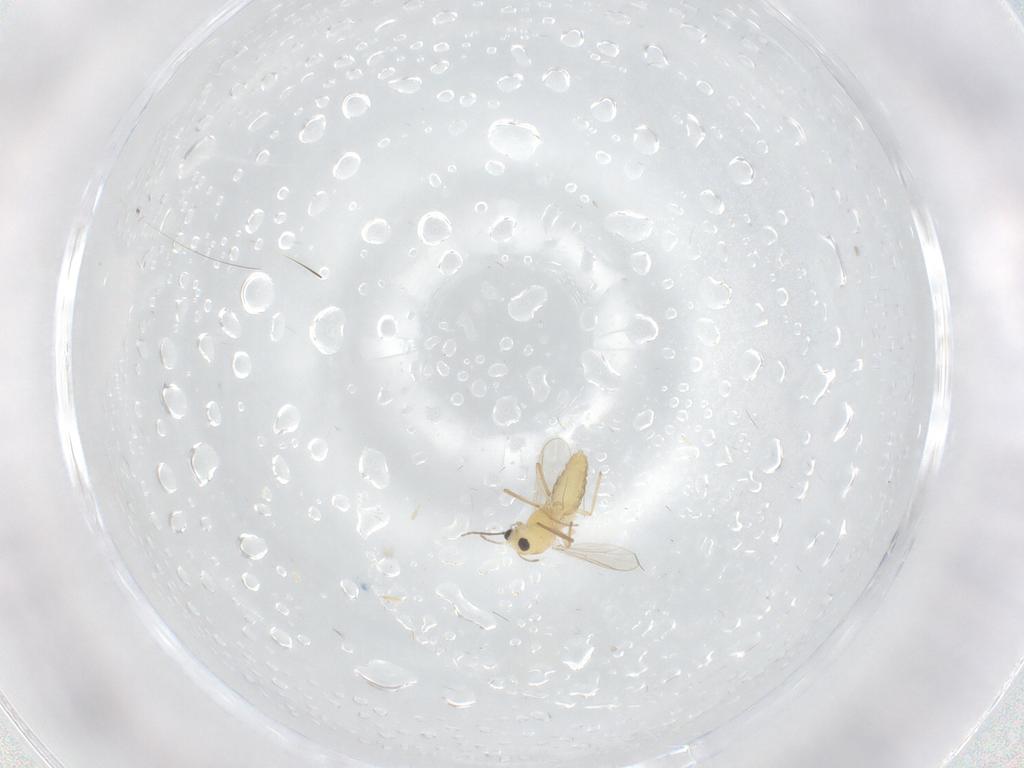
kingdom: Animalia
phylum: Arthropoda
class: Insecta
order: Diptera
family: Chironomidae
